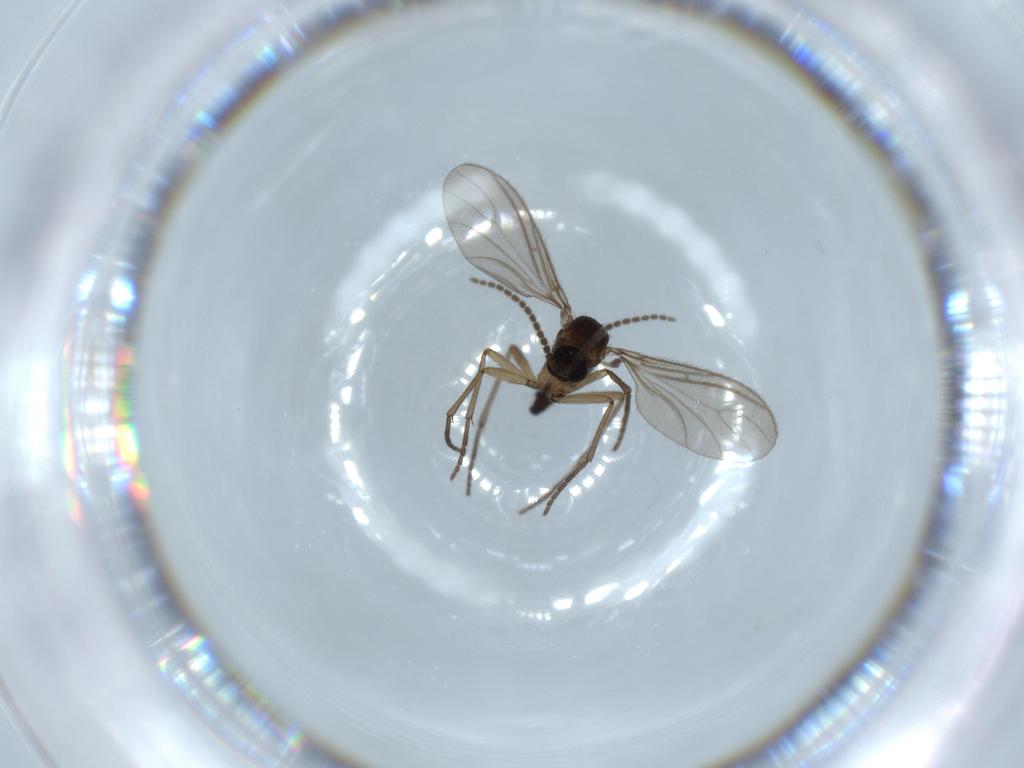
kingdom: Animalia
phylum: Arthropoda
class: Insecta
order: Diptera
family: Sciaridae
